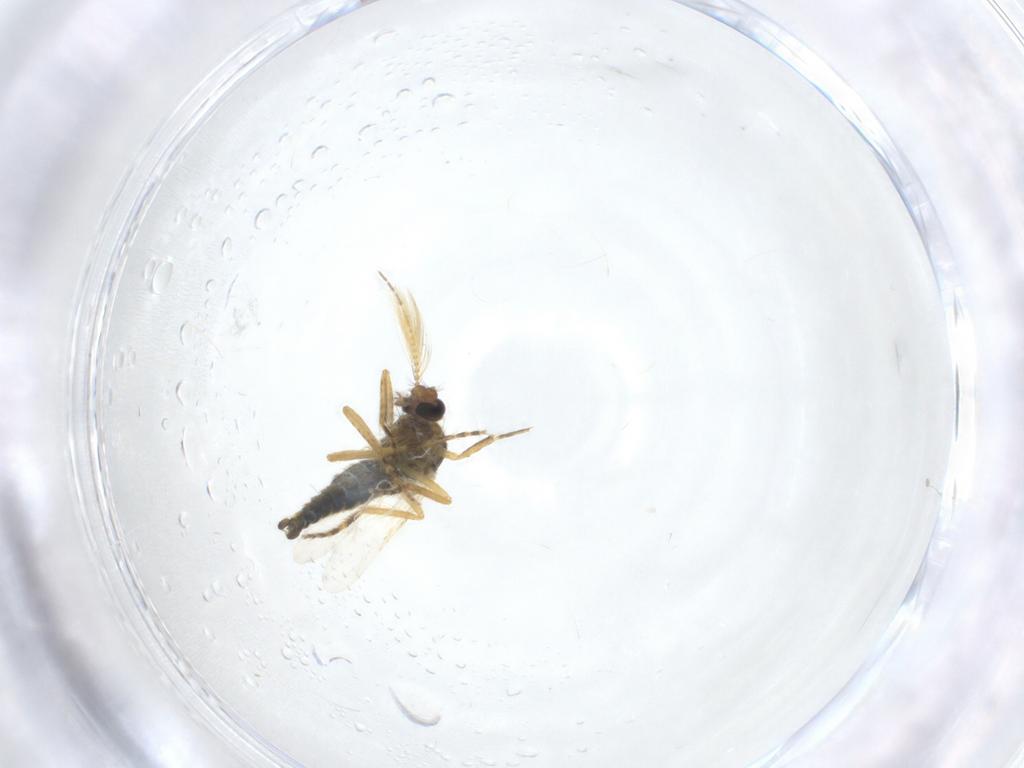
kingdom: Animalia
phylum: Arthropoda
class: Insecta
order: Diptera
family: Ceratopogonidae
